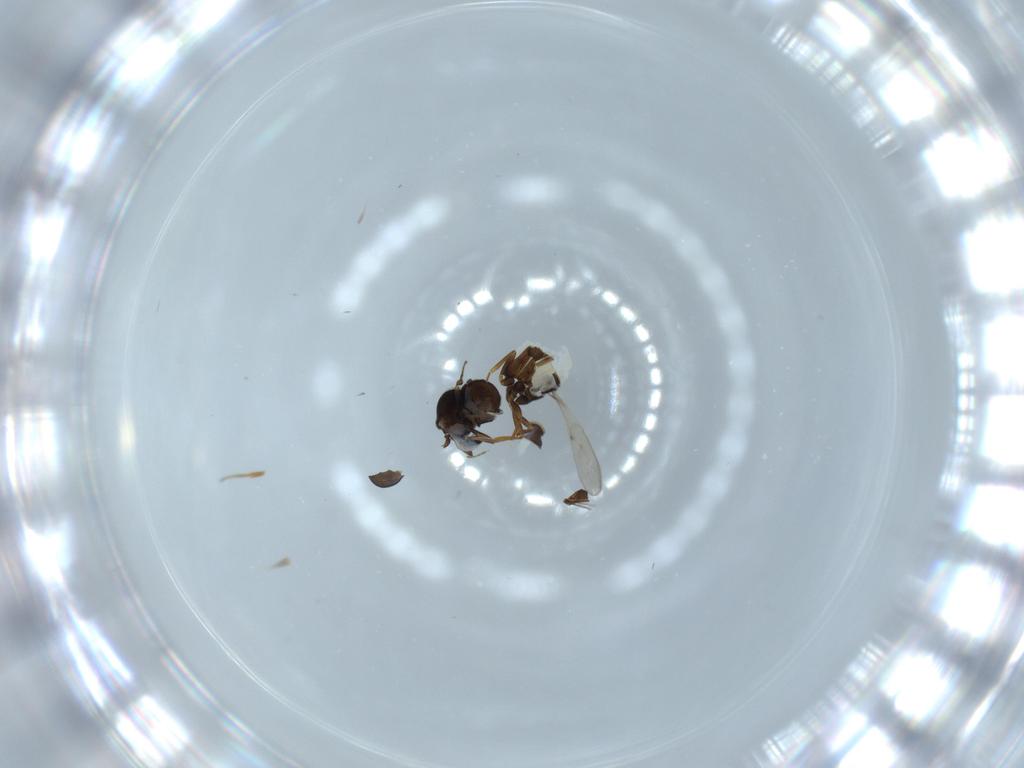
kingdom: Animalia
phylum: Arthropoda
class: Insecta
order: Hymenoptera
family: Scelionidae
